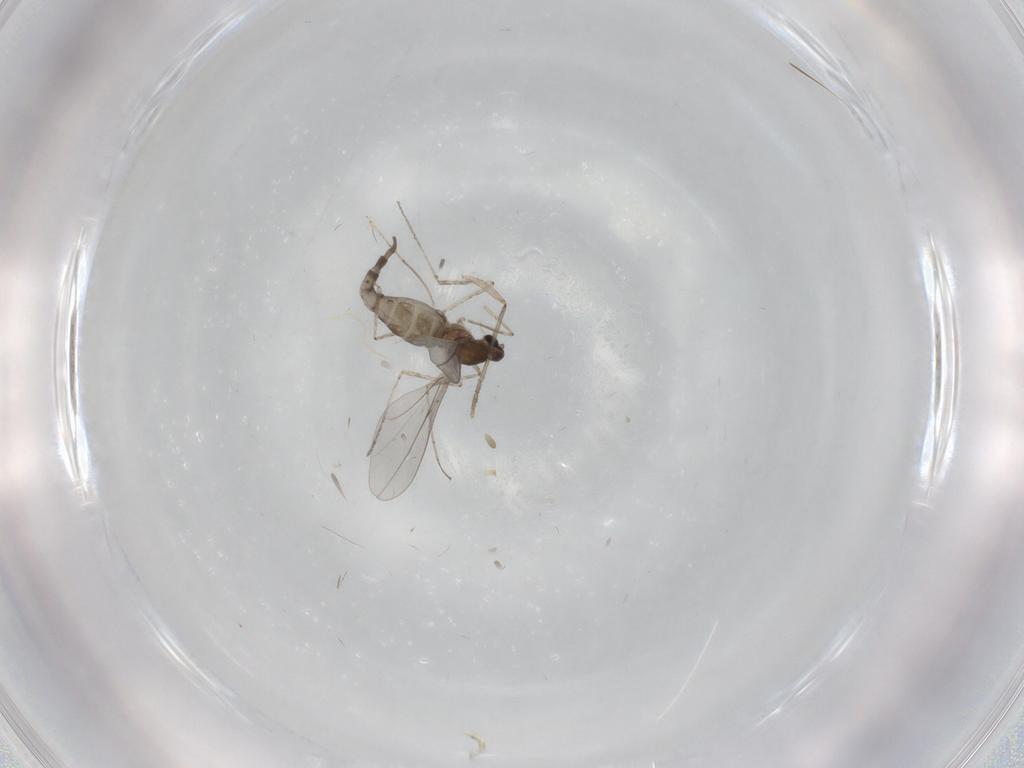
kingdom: Animalia
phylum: Arthropoda
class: Insecta
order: Diptera
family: Cecidomyiidae
